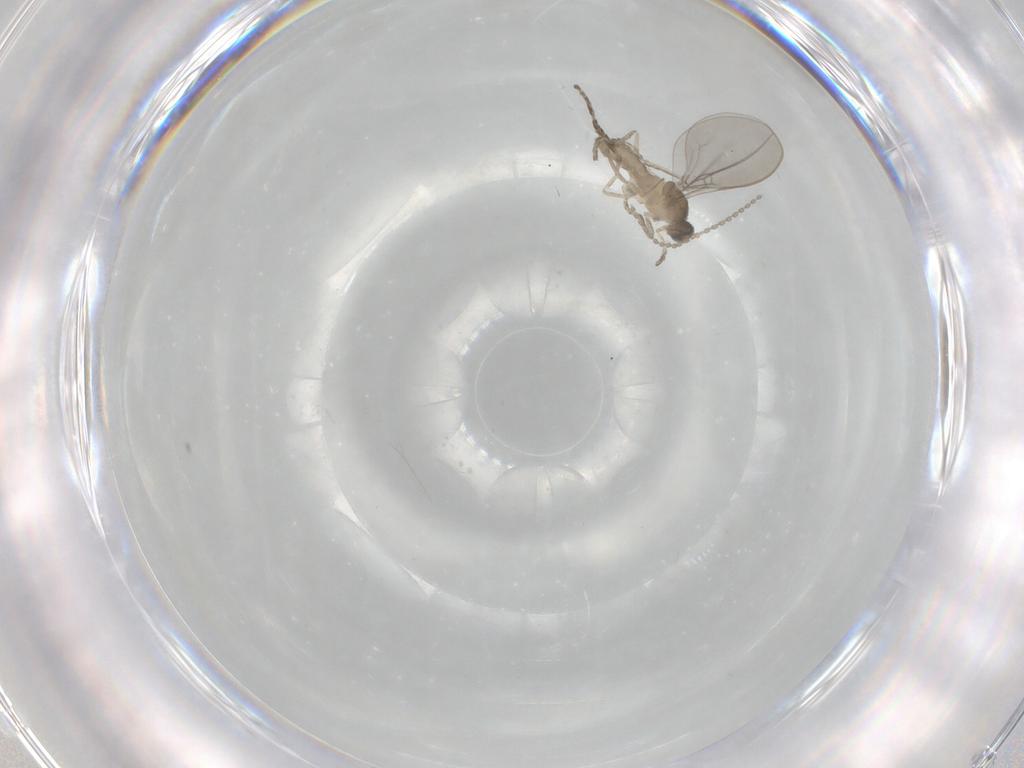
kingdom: Animalia
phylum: Arthropoda
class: Insecta
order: Diptera
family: Cecidomyiidae
